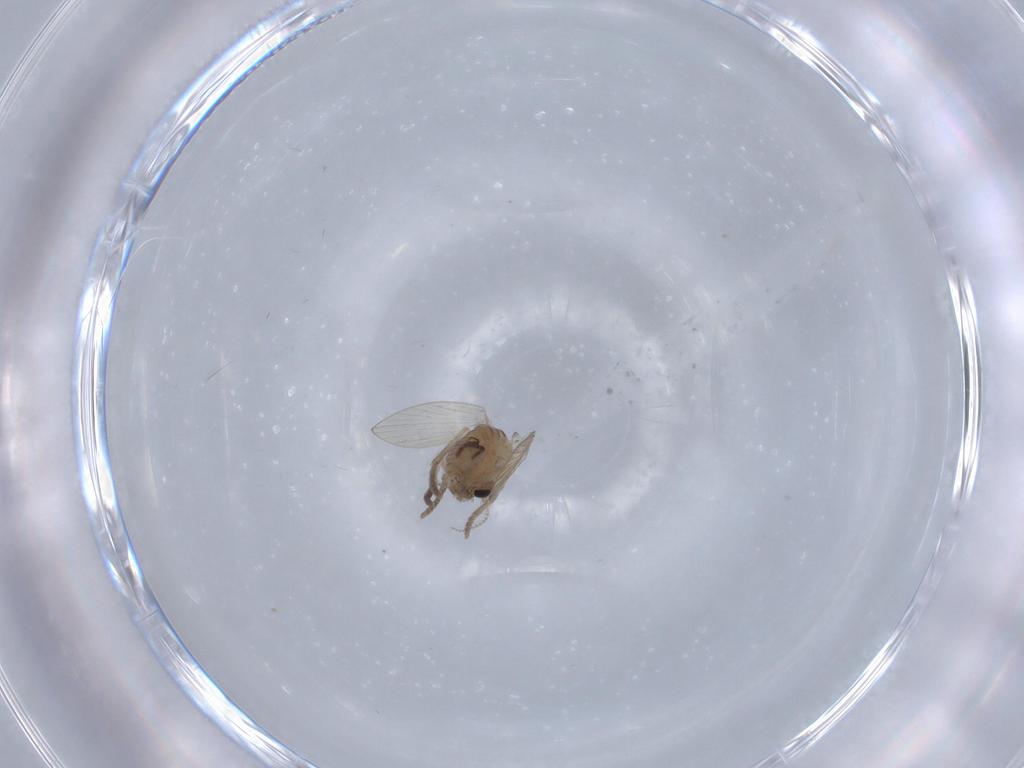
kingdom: Animalia
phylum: Arthropoda
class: Insecta
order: Diptera
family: Psychodidae
